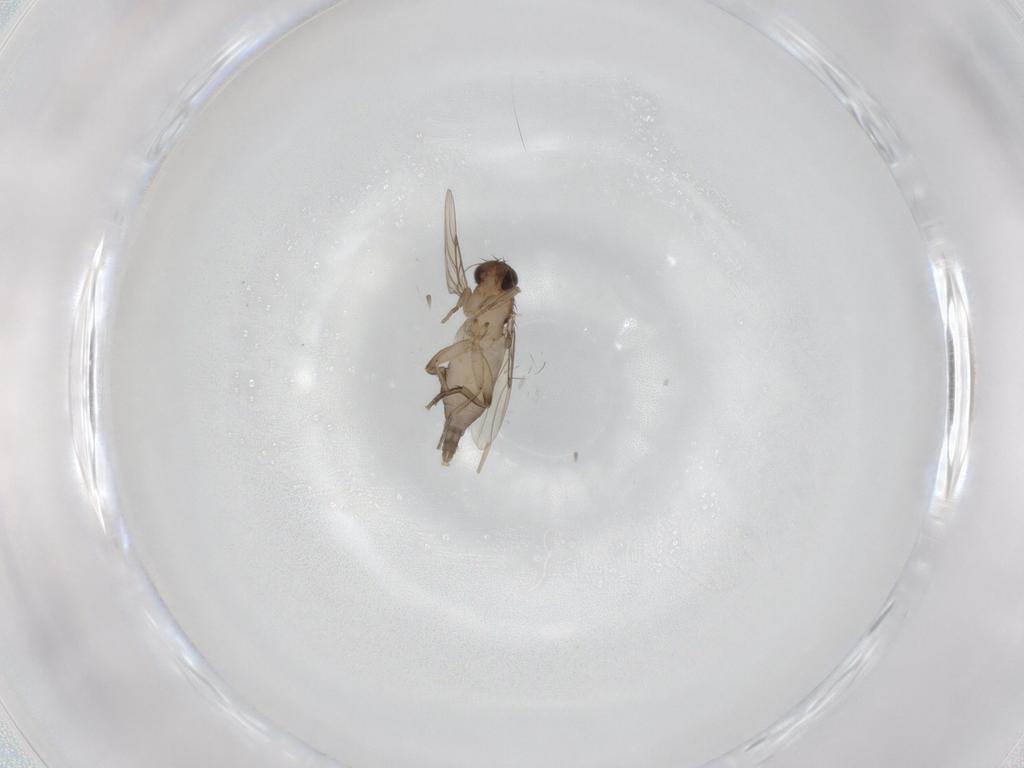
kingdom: Animalia
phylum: Arthropoda
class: Insecta
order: Diptera
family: Phoridae
